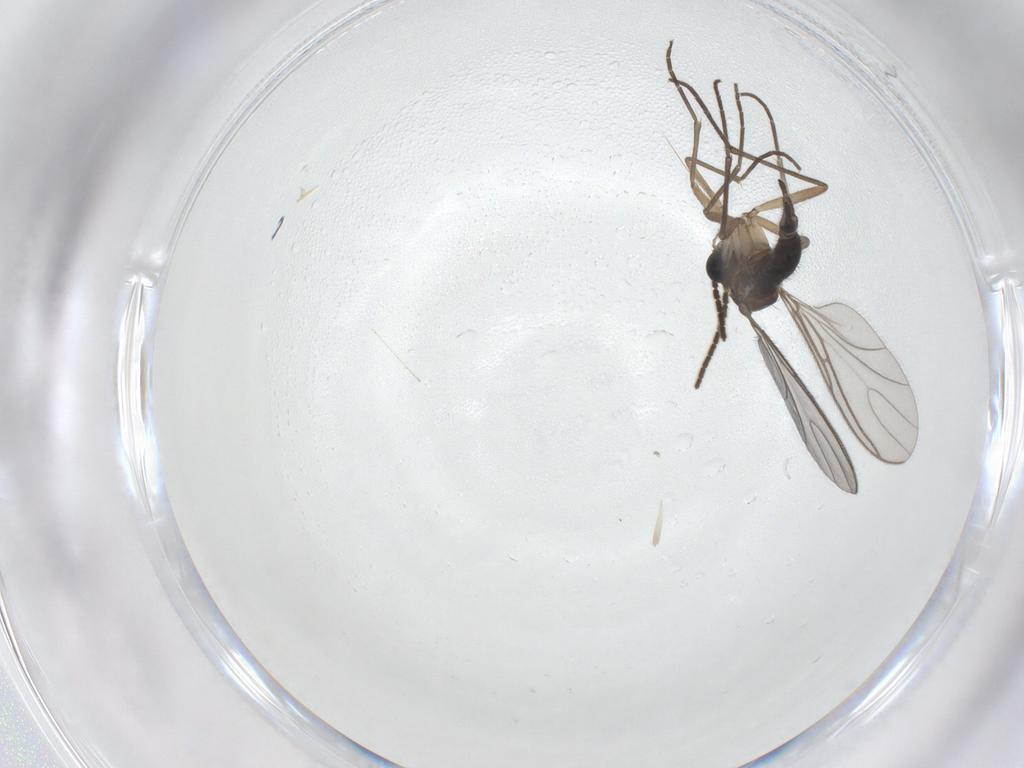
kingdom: Animalia
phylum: Arthropoda
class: Insecta
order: Diptera
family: Sciaridae
